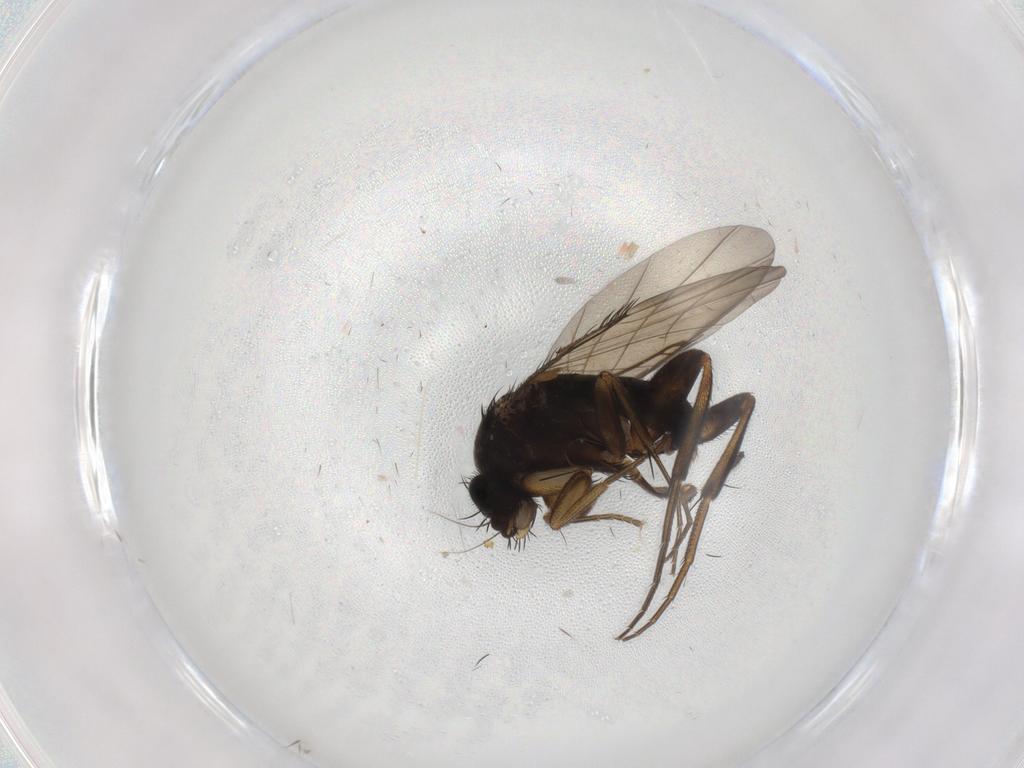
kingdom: Animalia
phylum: Arthropoda
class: Insecta
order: Diptera
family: Phoridae
